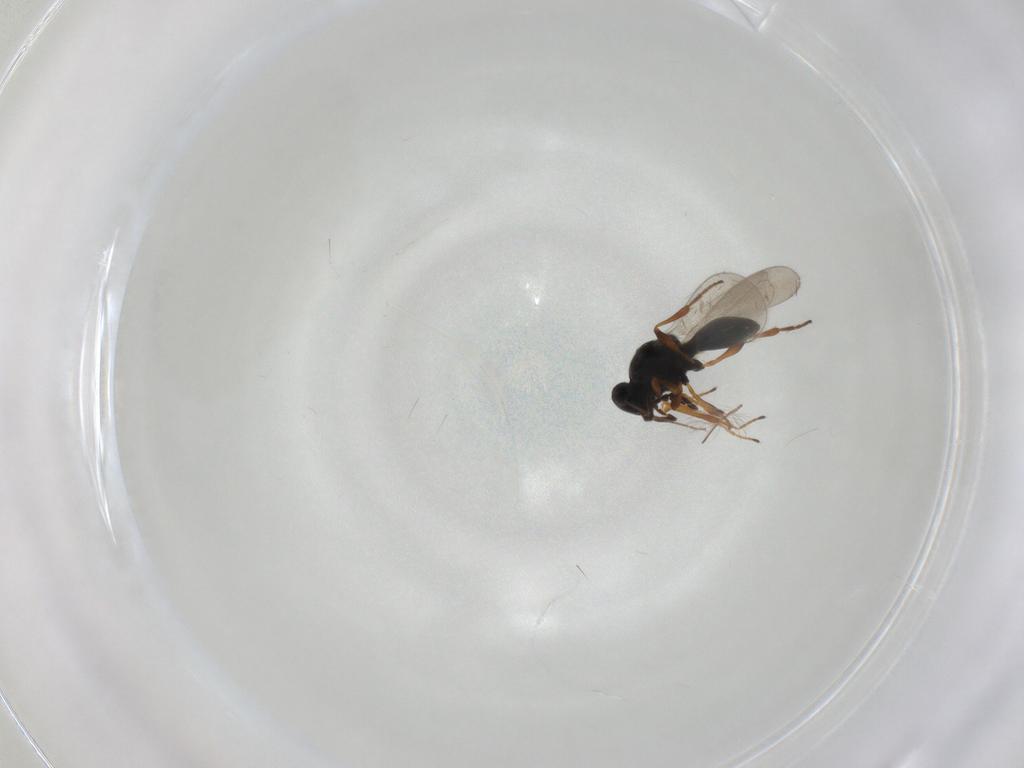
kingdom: Animalia
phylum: Arthropoda
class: Insecta
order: Hymenoptera
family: Platygastridae
